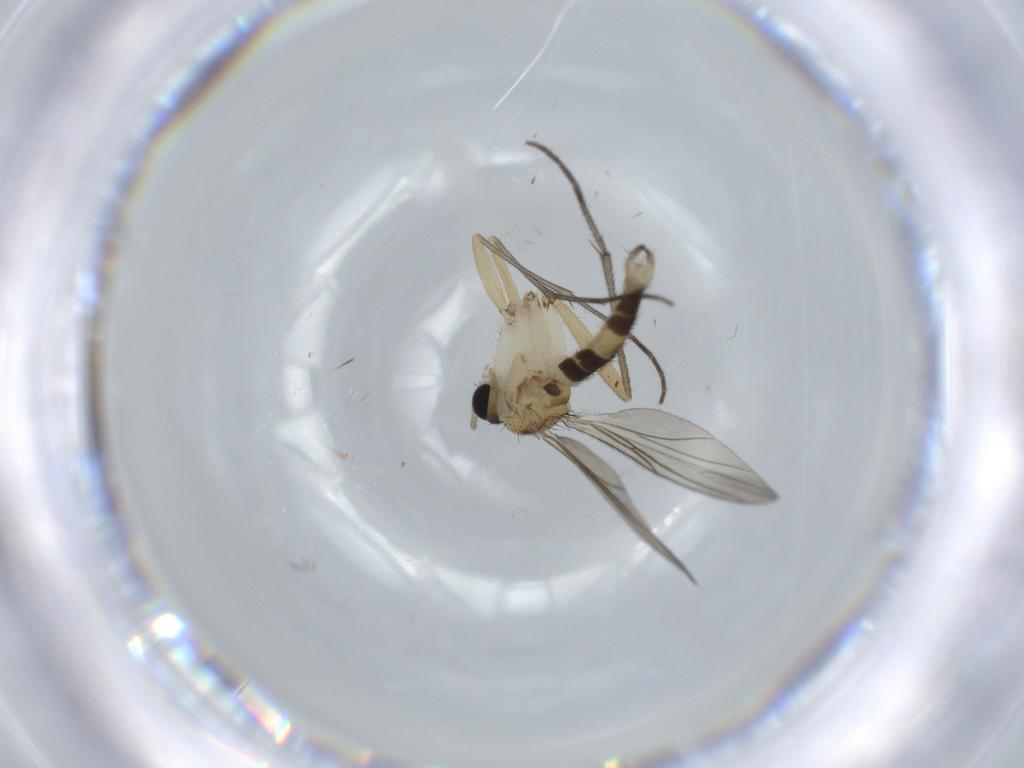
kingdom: Animalia
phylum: Arthropoda
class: Insecta
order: Diptera
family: Sciaridae
